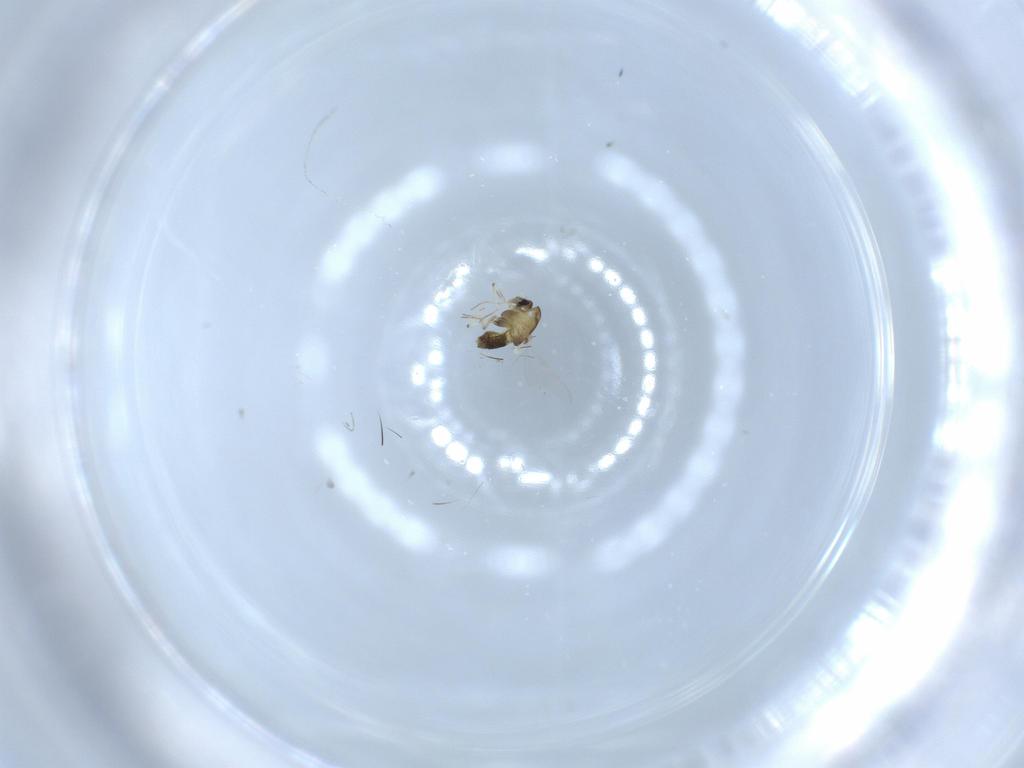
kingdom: Animalia
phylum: Arthropoda
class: Insecta
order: Diptera
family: Chironomidae
